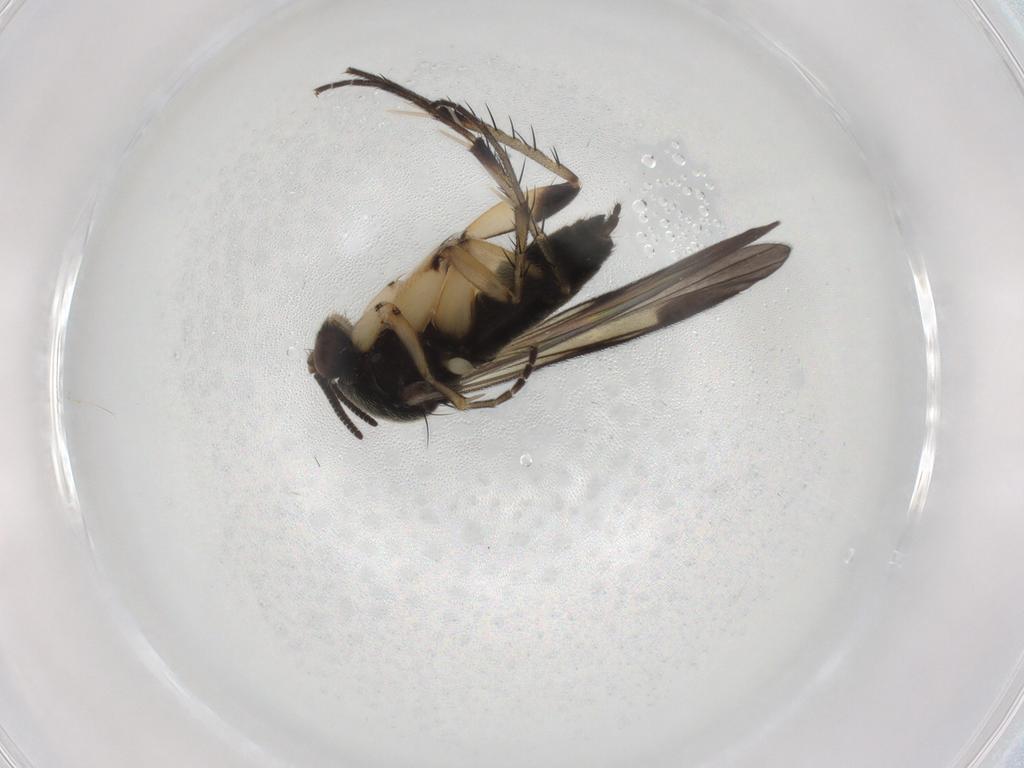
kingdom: Animalia
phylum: Arthropoda
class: Insecta
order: Diptera
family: Mycetophilidae
